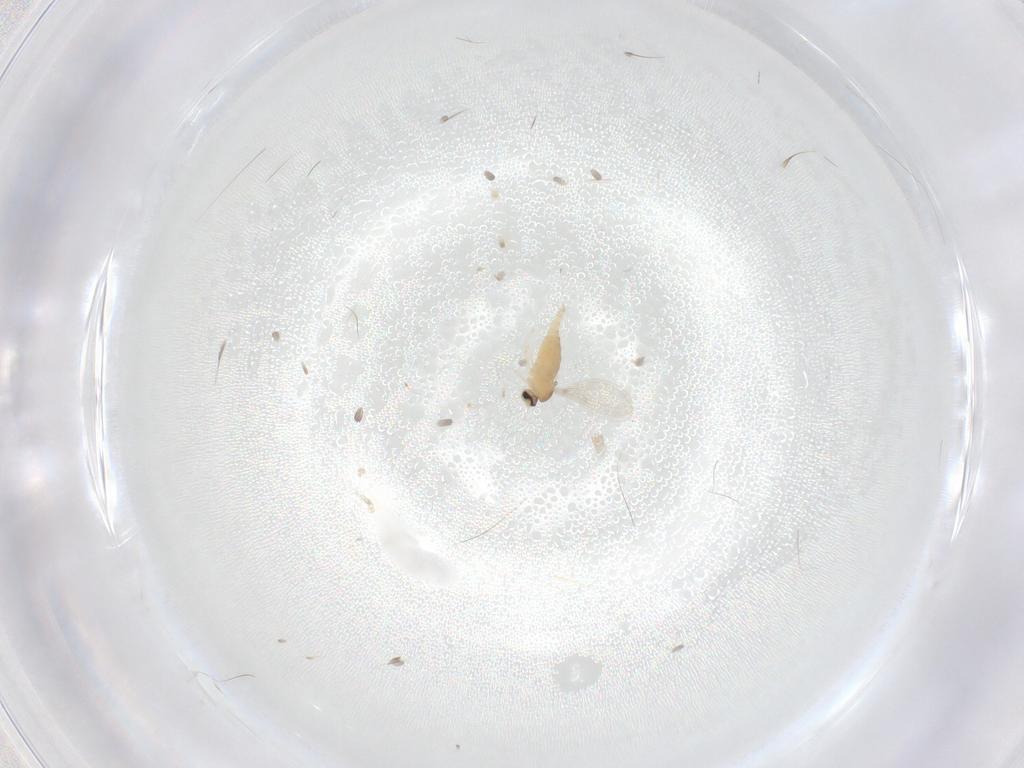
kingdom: Animalia
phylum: Arthropoda
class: Insecta
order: Diptera
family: Cecidomyiidae
